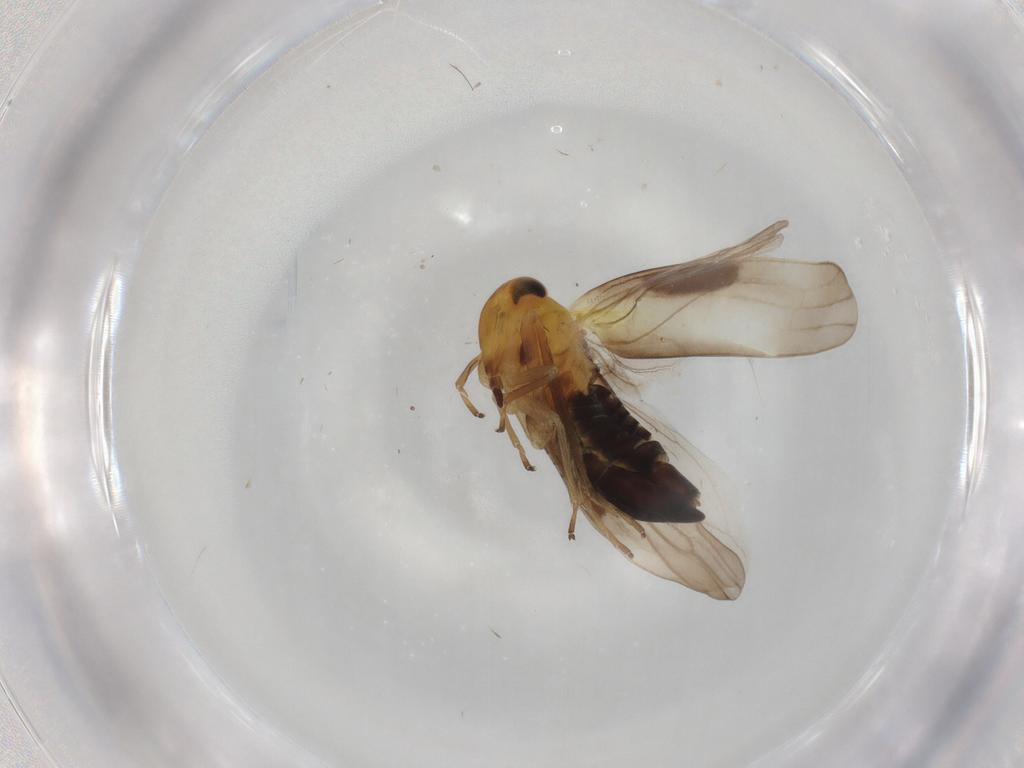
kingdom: Animalia
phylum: Arthropoda
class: Insecta
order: Hemiptera
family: Cicadellidae
